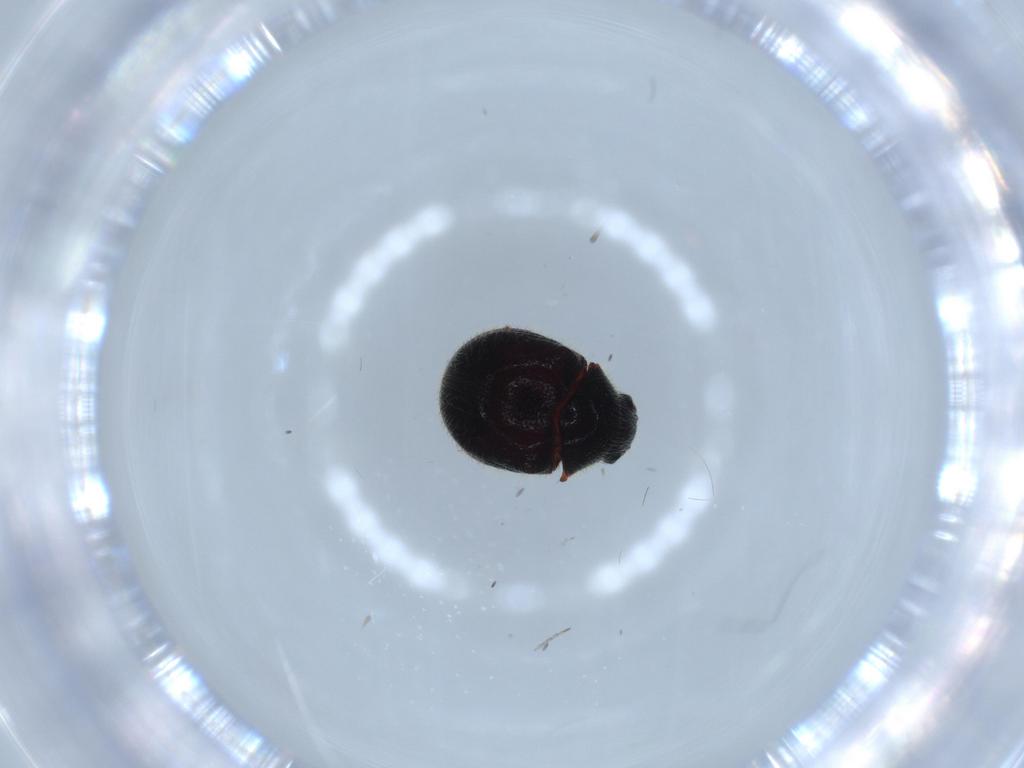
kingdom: Animalia
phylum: Arthropoda
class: Insecta
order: Coleoptera
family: Ptinidae
